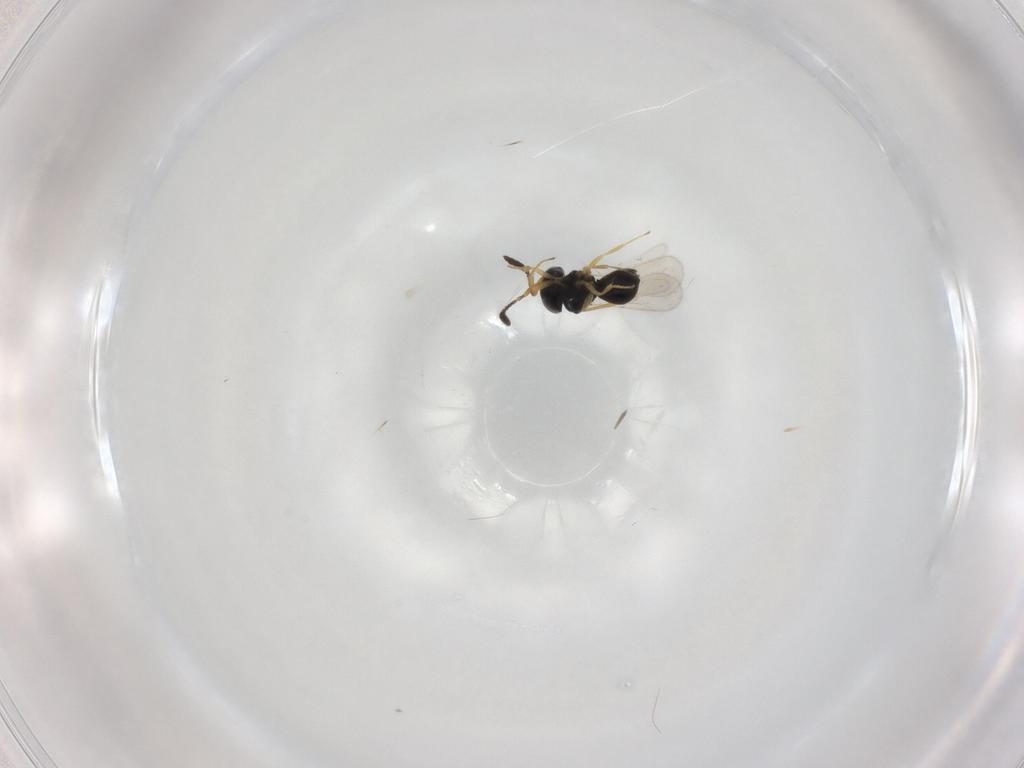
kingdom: Animalia
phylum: Arthropoda
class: Insecta
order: Hymenoptera
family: Scelionidae
